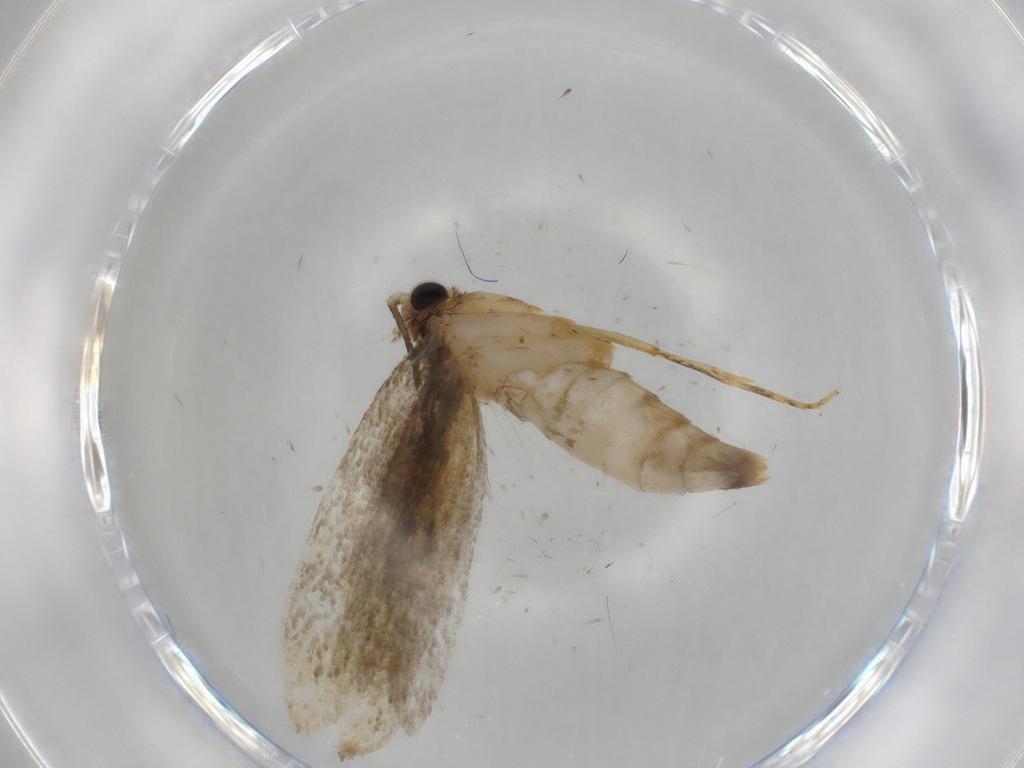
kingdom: Animalia
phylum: Arthropoda
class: Insecta
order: Lepidoptera
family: Tineidae
